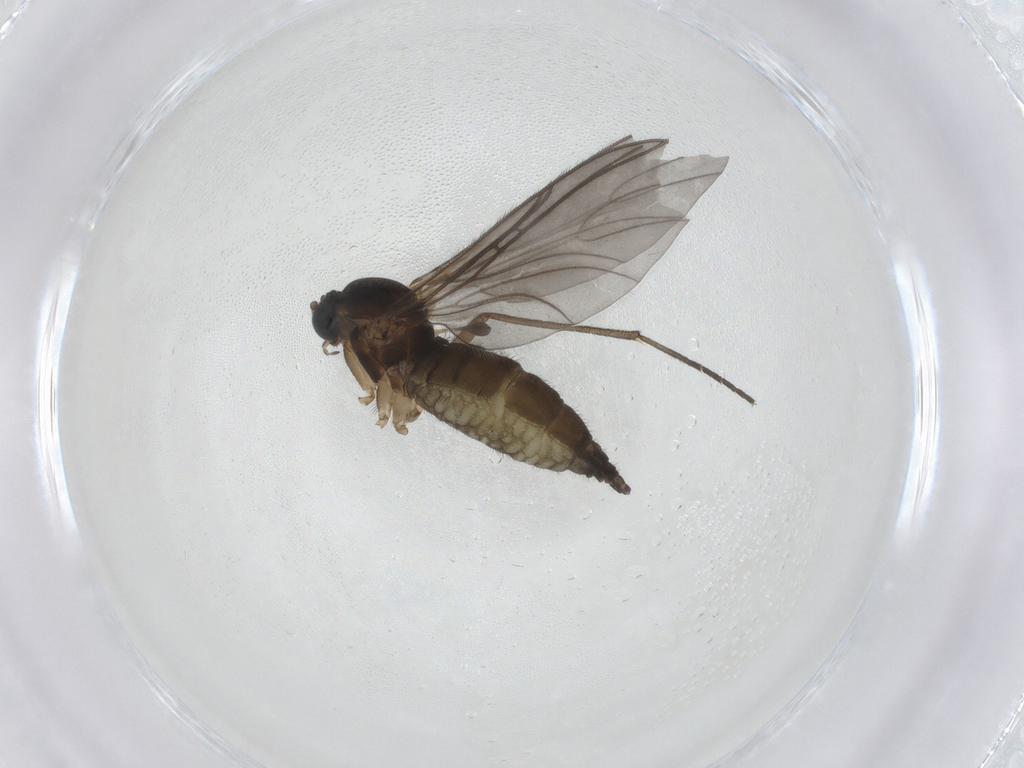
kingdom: Animalia
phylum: Arthropoda
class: Insecta
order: Diptera
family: Sciaridae
